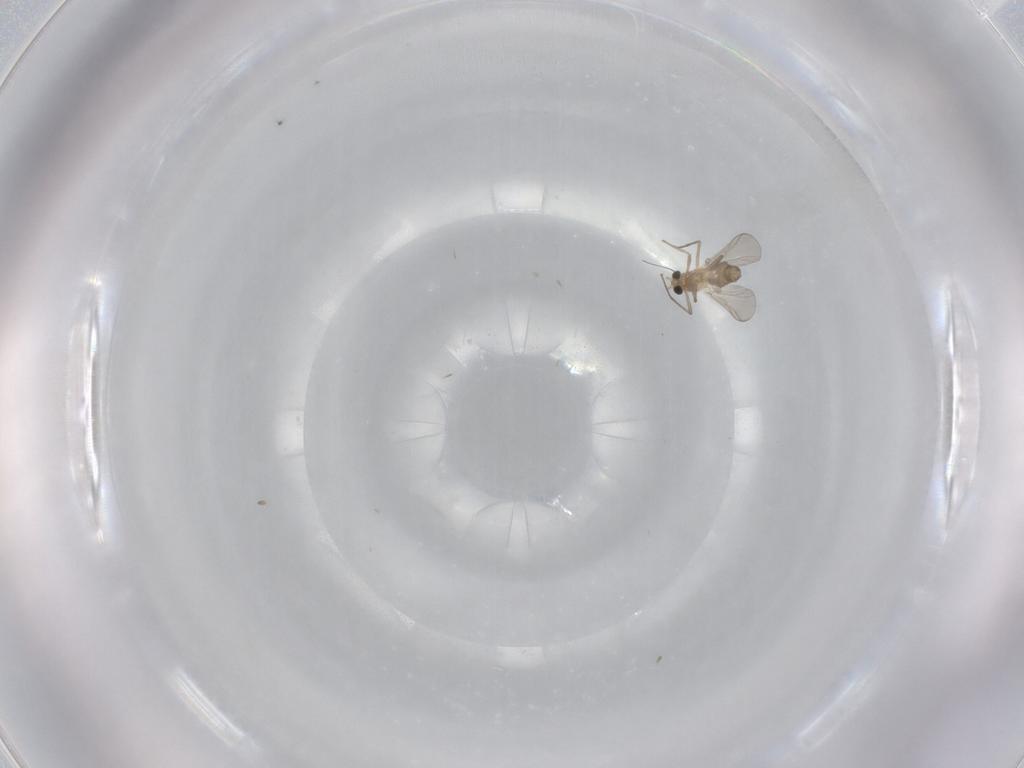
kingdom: Animalia
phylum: Arthropoda
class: Insecta
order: Diptera
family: Chironomidae
